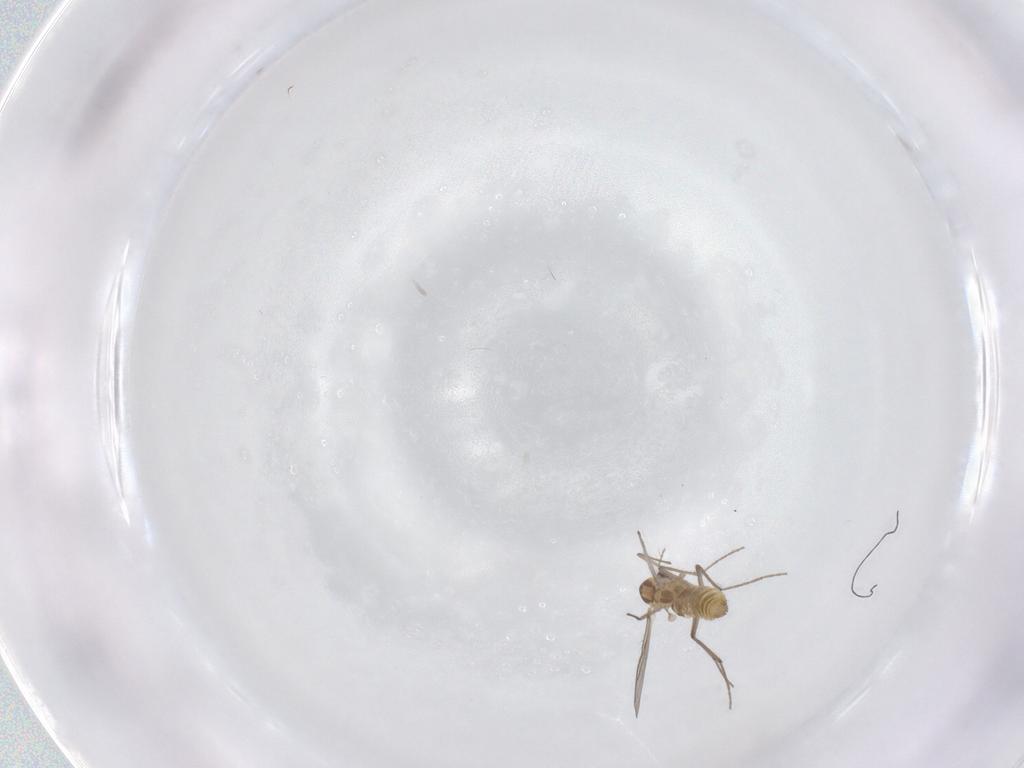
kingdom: Animalia
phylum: Arthropoda
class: Insecta
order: Diptera
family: Chironomidae
